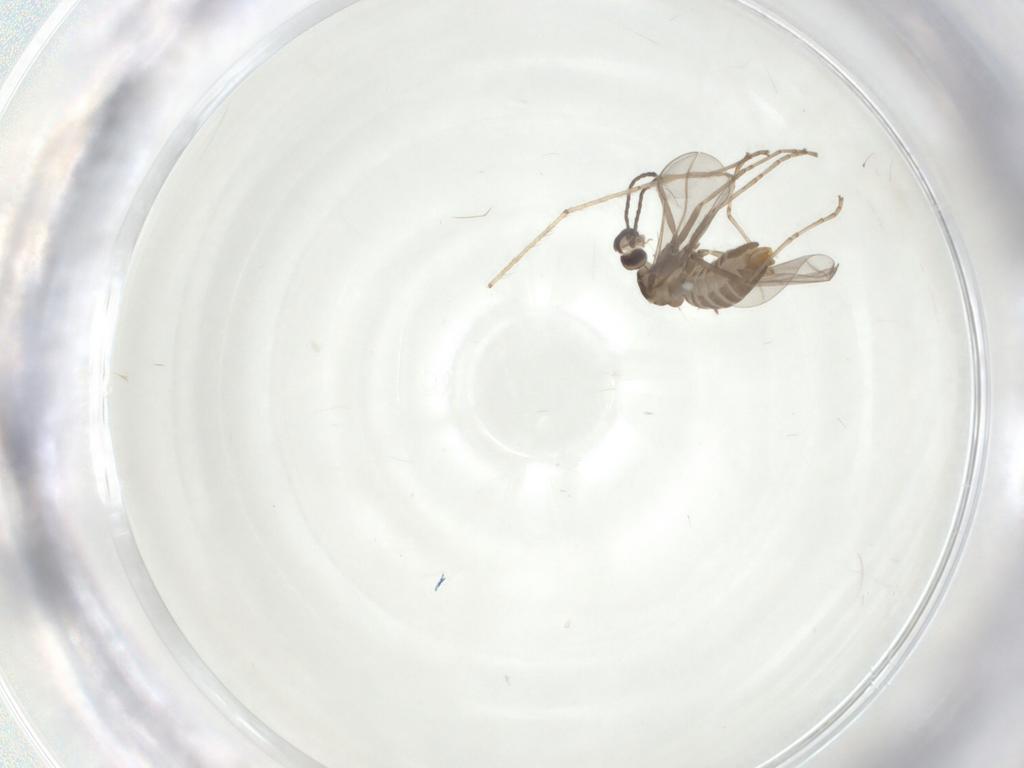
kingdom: Animalia
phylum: Arthropoda
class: Insecta
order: Diptera
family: Cecidomyiidae
